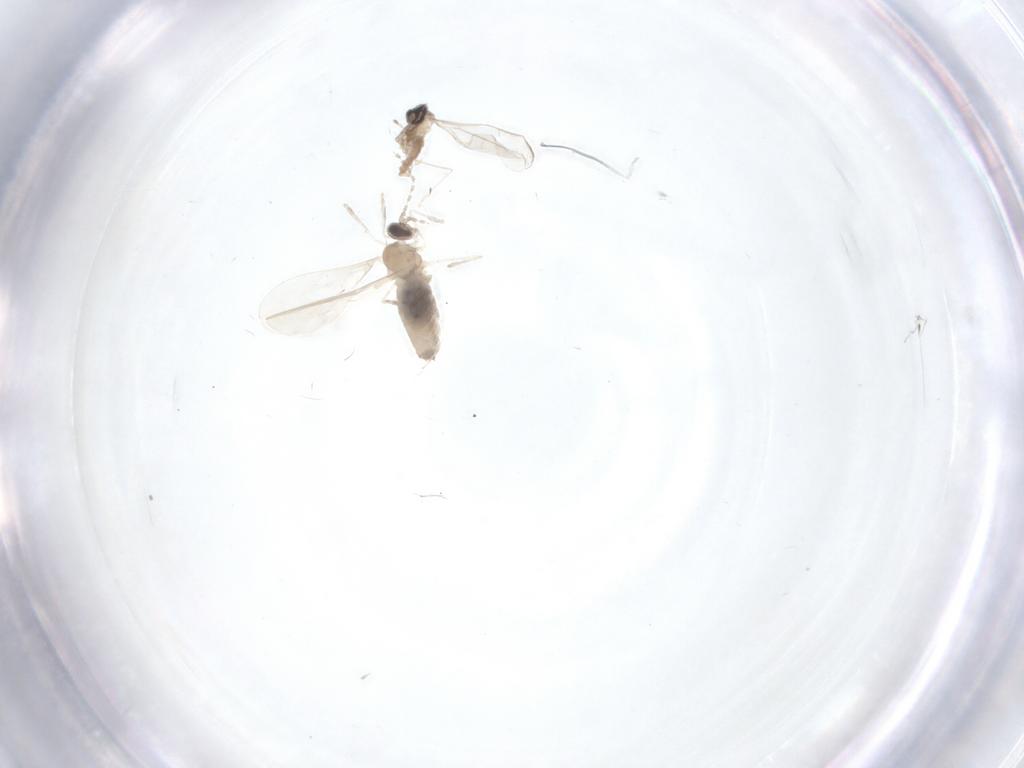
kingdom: Animalia
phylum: Arthropoda
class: Insecta
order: Diptera
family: Cecidomyiidae
